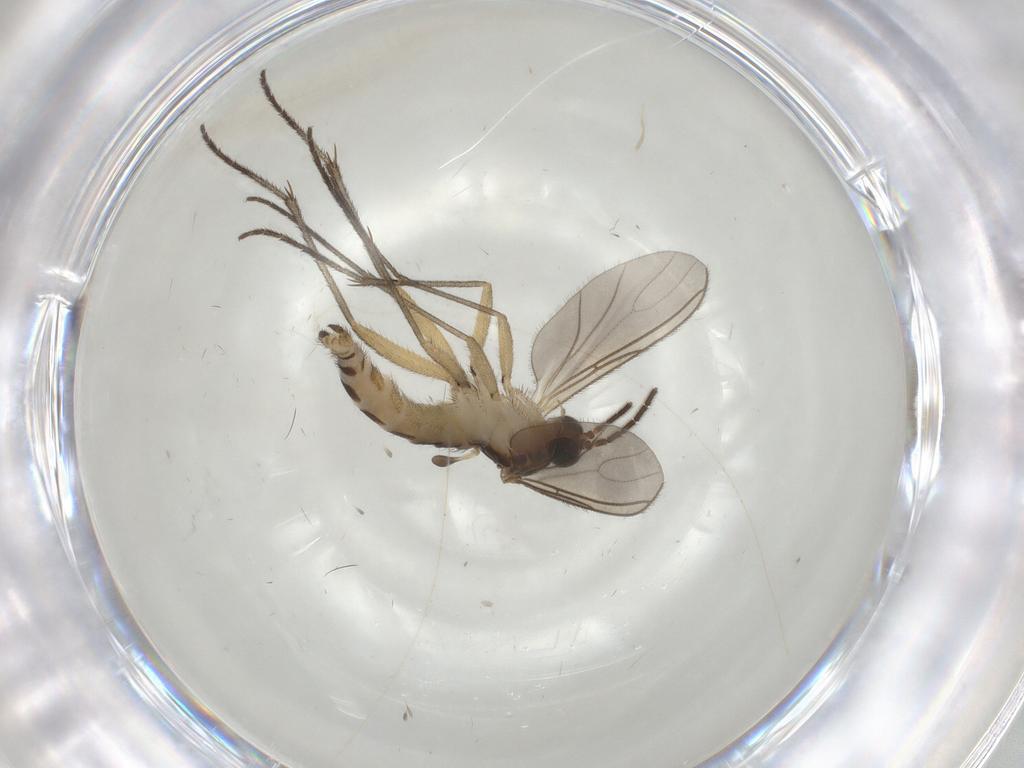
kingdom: Animalia
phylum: Arthropoda
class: Insecta
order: Diptera
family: Sciaridae
